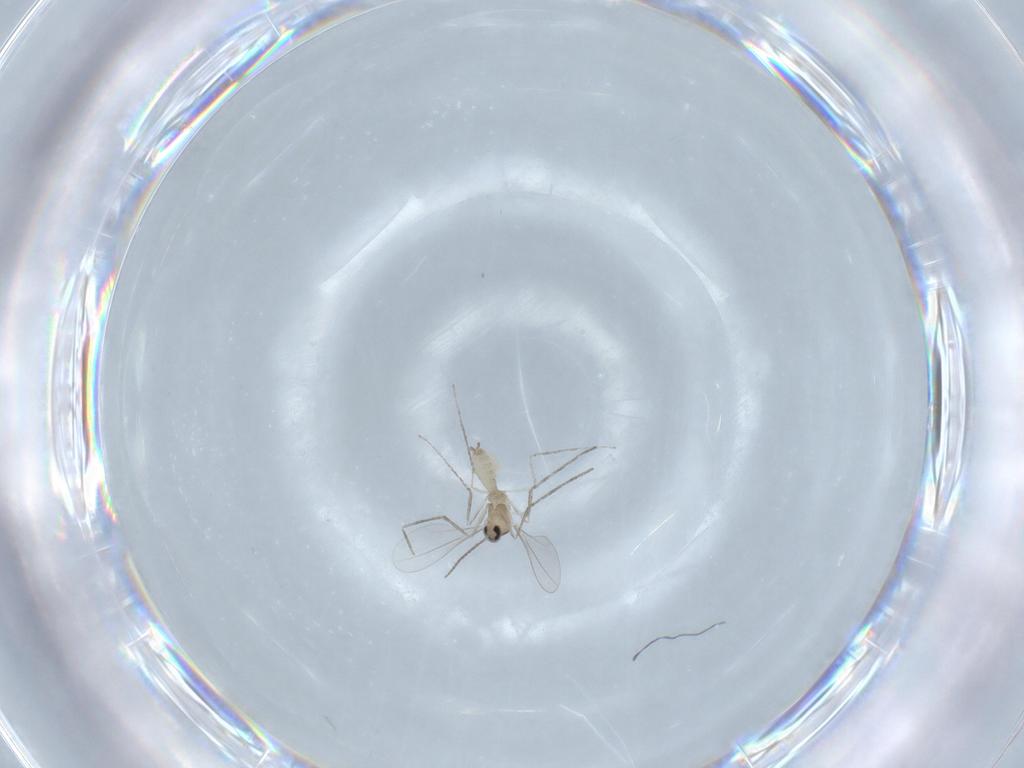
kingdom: Animalia
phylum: Arthropoda
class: Insecta
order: Diptera
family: Cecidomyiidae
